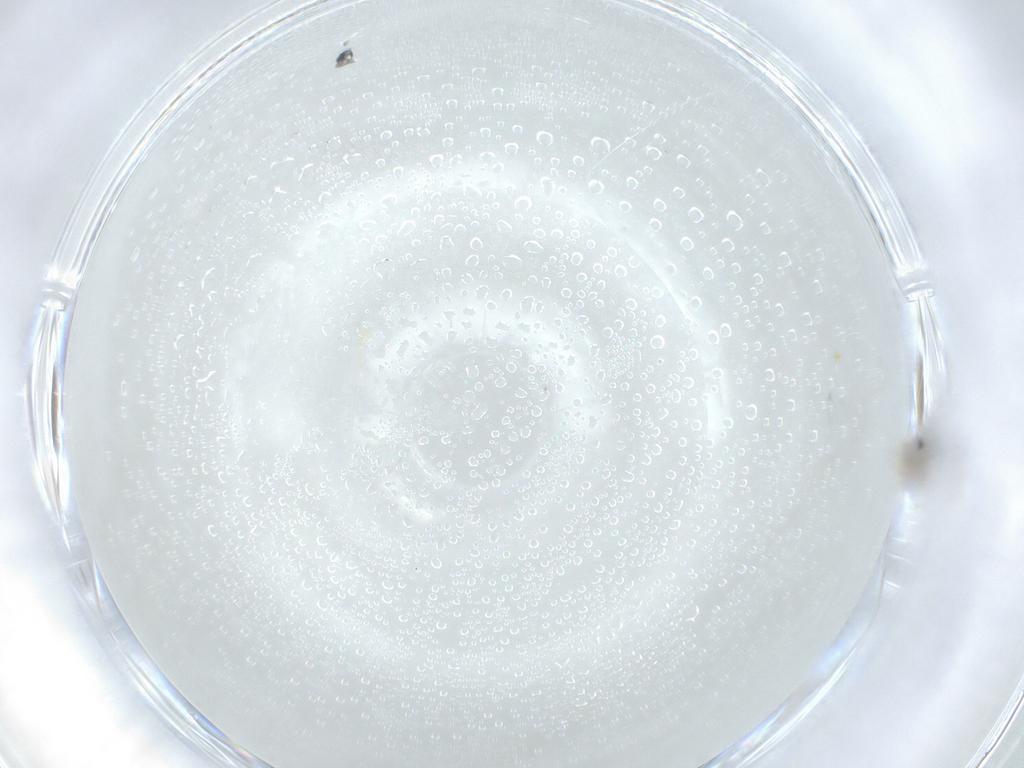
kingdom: Animalia
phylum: Arthropoda
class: Insecta
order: Diptera
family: Cecidomyiidae
